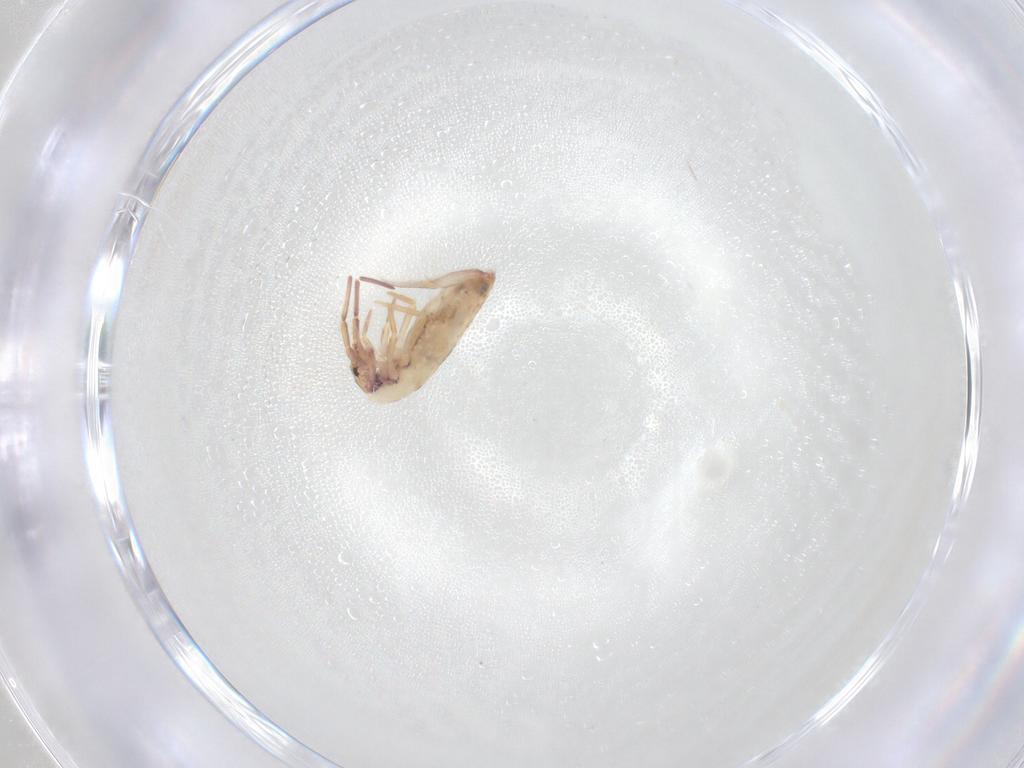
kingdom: Animalia
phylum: Arthropoda
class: Collembola
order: Entomobryomorpha
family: Entomobryidae
